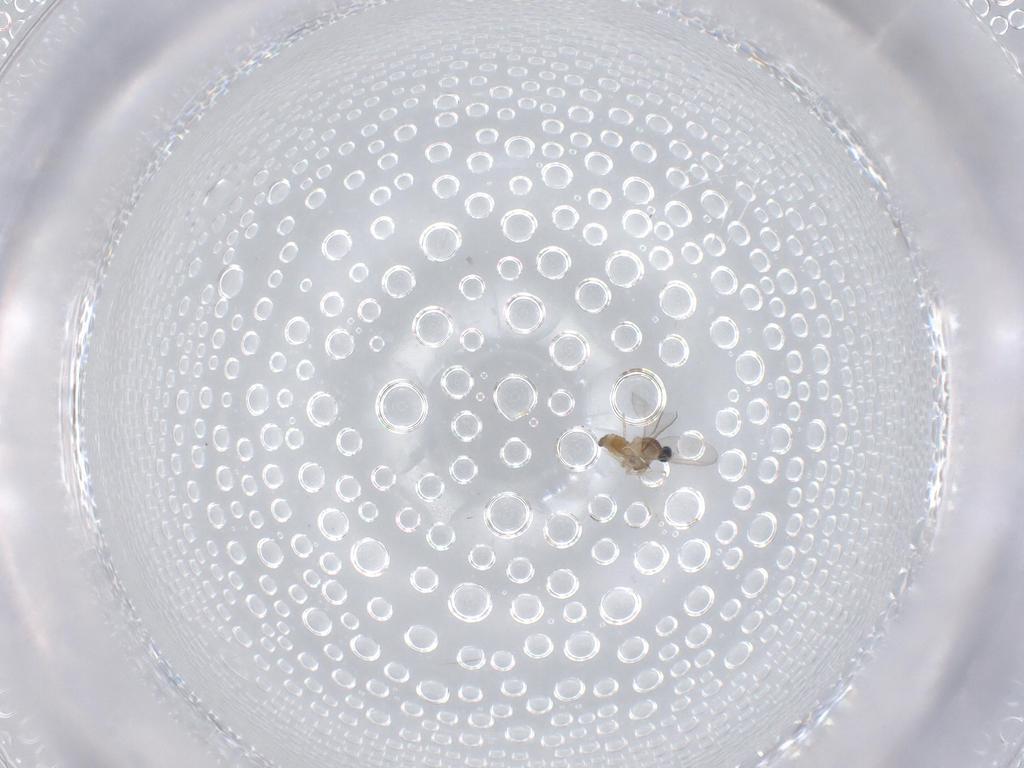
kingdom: Animalia
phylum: Arthropoda
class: Insecta
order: Diptera
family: Cecidomyiidae
